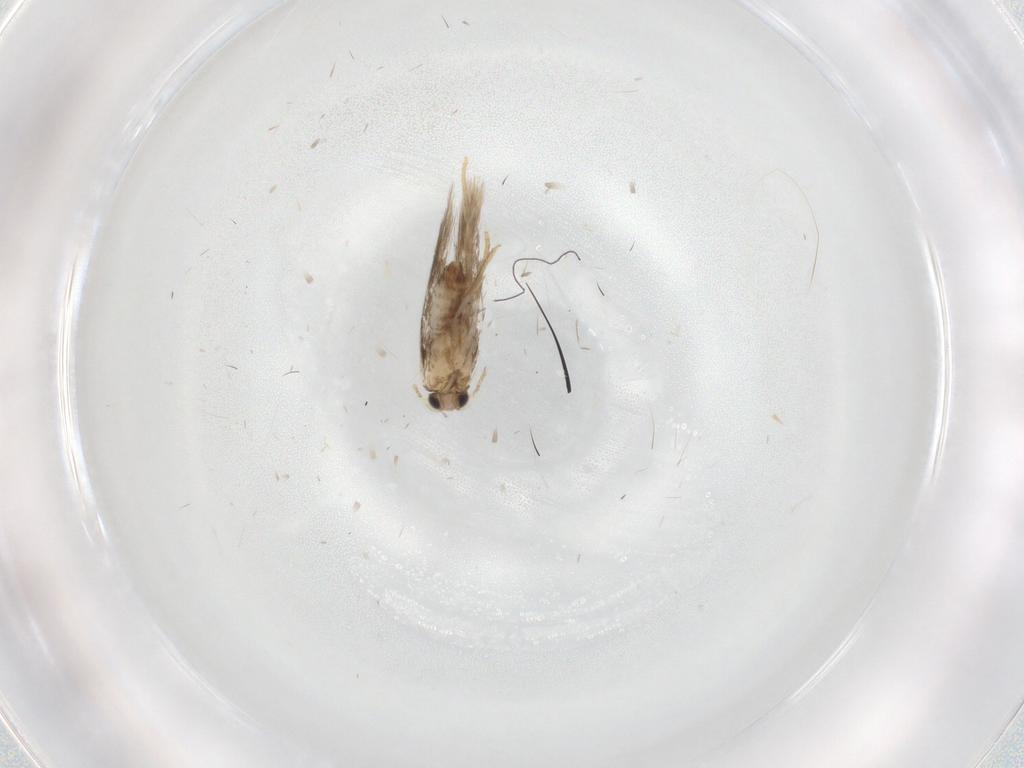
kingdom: Animalia
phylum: Arthropoda
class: Insecta
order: Lepidoptera
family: Nepticulidae
